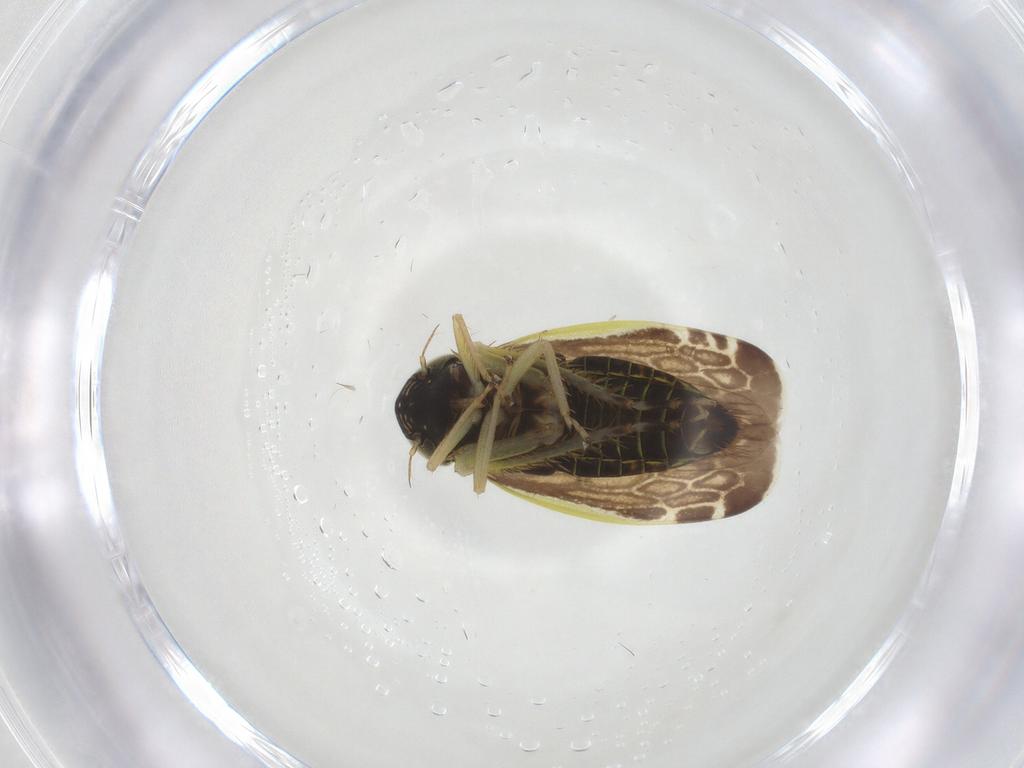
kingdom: Animalia
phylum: Arthropoda
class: Insecta
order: Hemiptera
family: Cicadellidae
